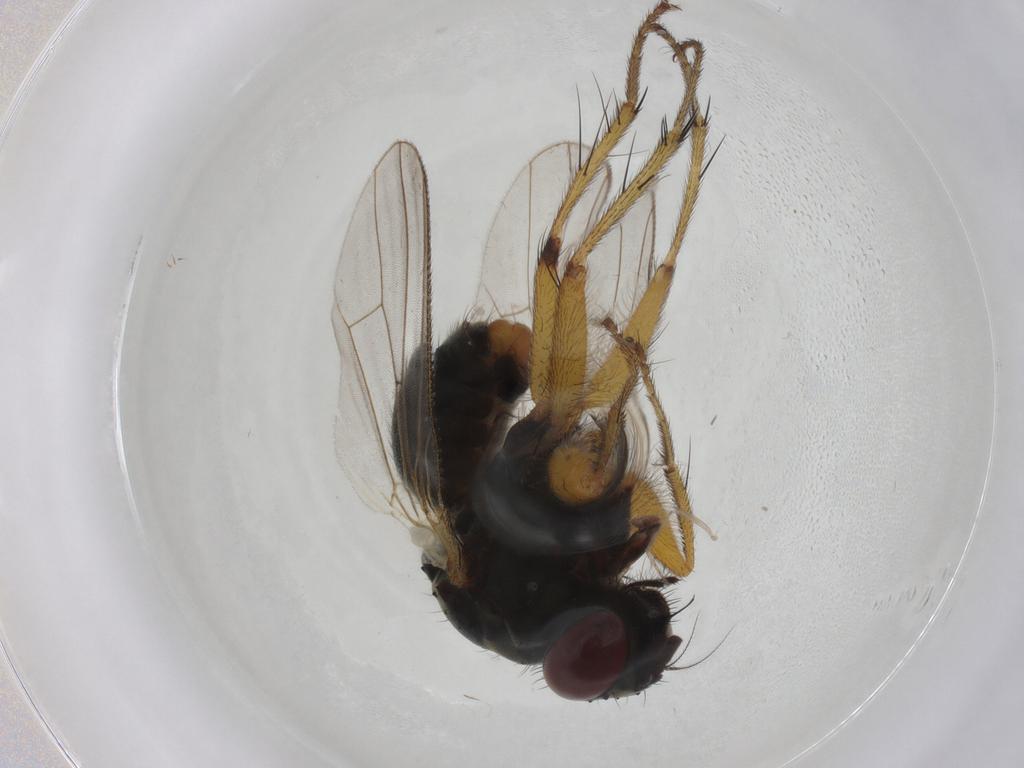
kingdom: Animalia
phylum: Arthropoda
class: Insecta
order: Diptera
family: Muscidae
